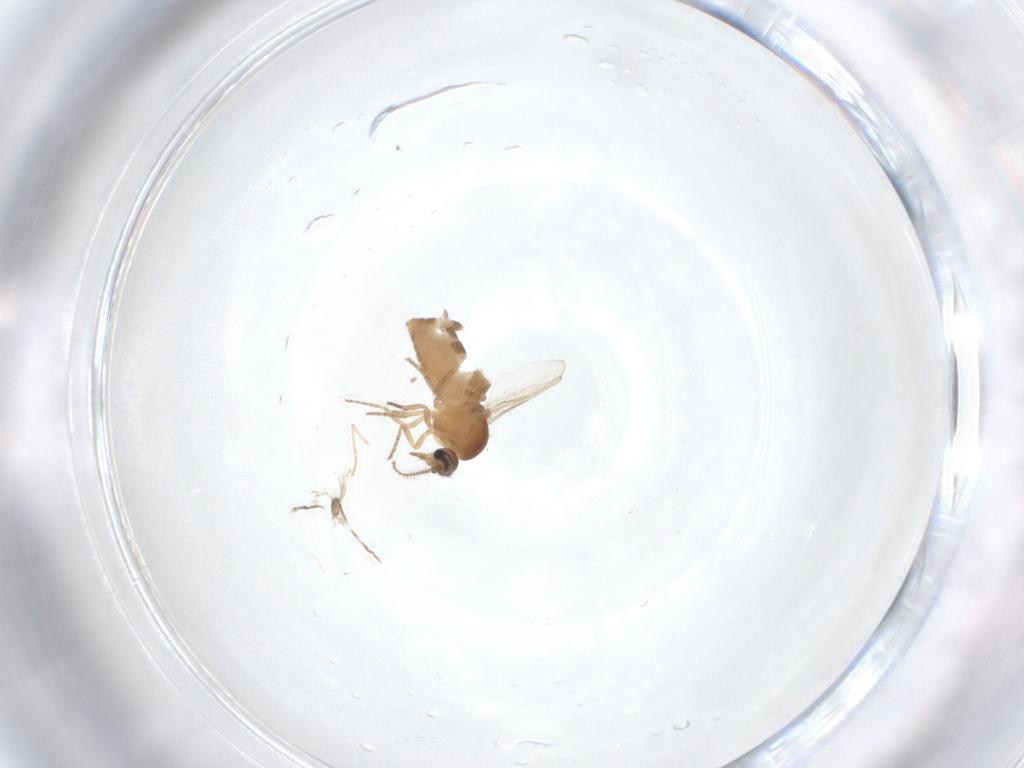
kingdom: Animalia
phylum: Arthropoda
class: Insecta
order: Diptera
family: Ceratopogonidae
